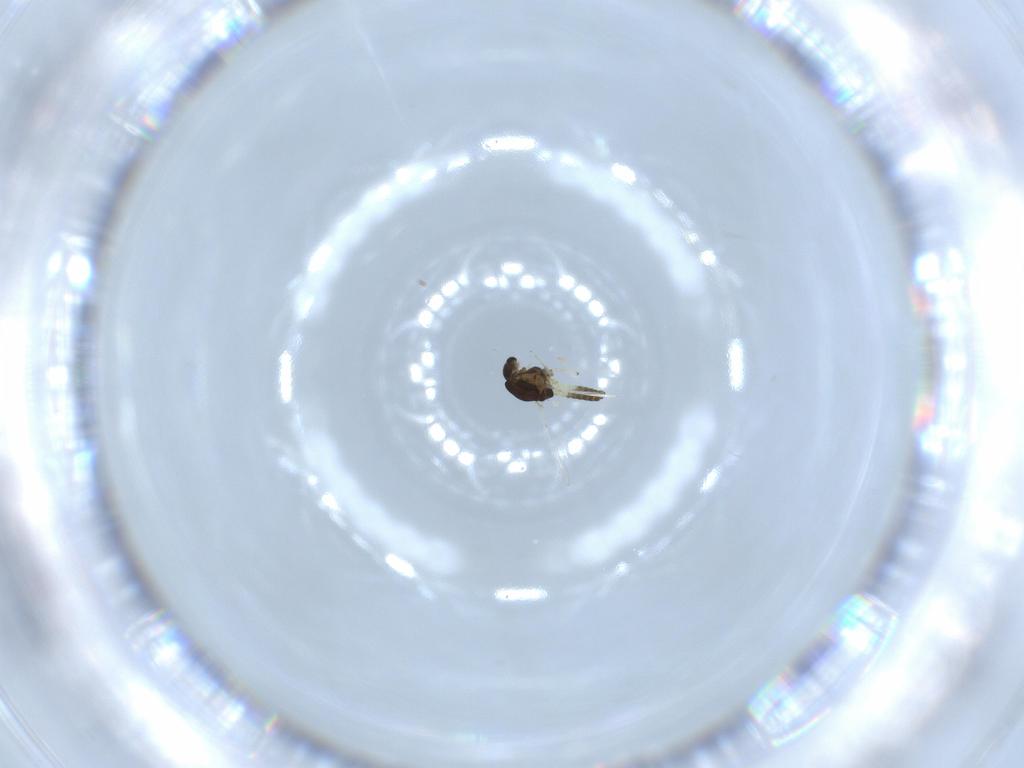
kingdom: Animalia
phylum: Arthropoda
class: Insecta
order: Diptera
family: Chironomidae
